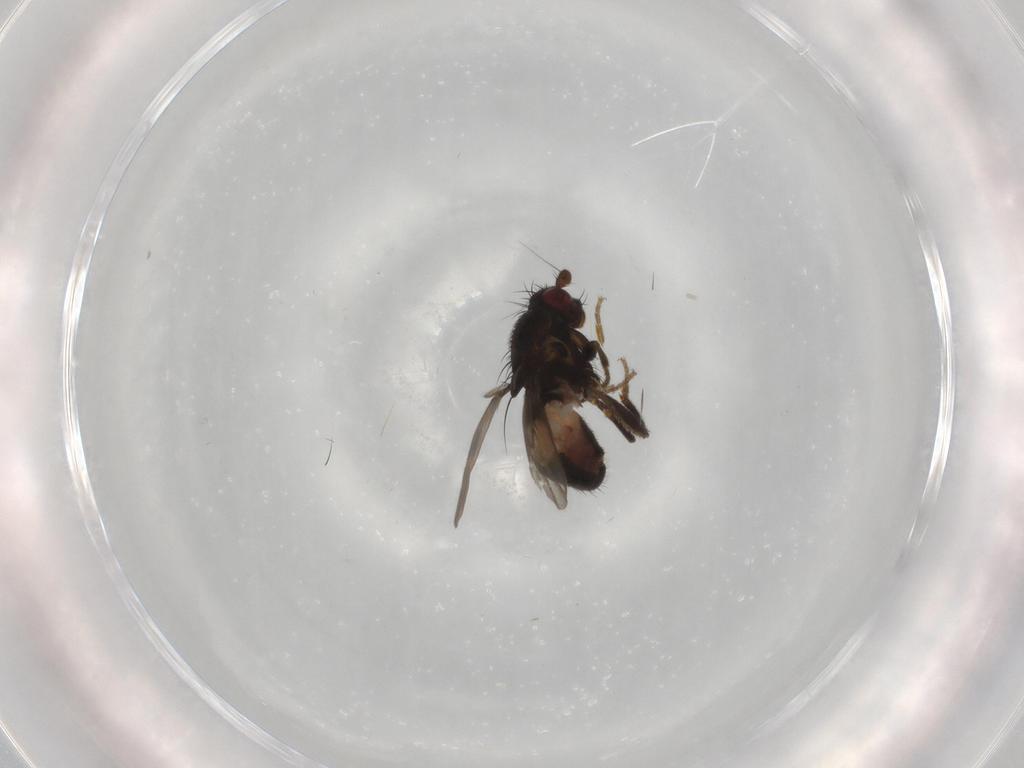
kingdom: Animalia
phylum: Arthropoda
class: Insecta
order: Diptera
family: Sphaeroceridae
